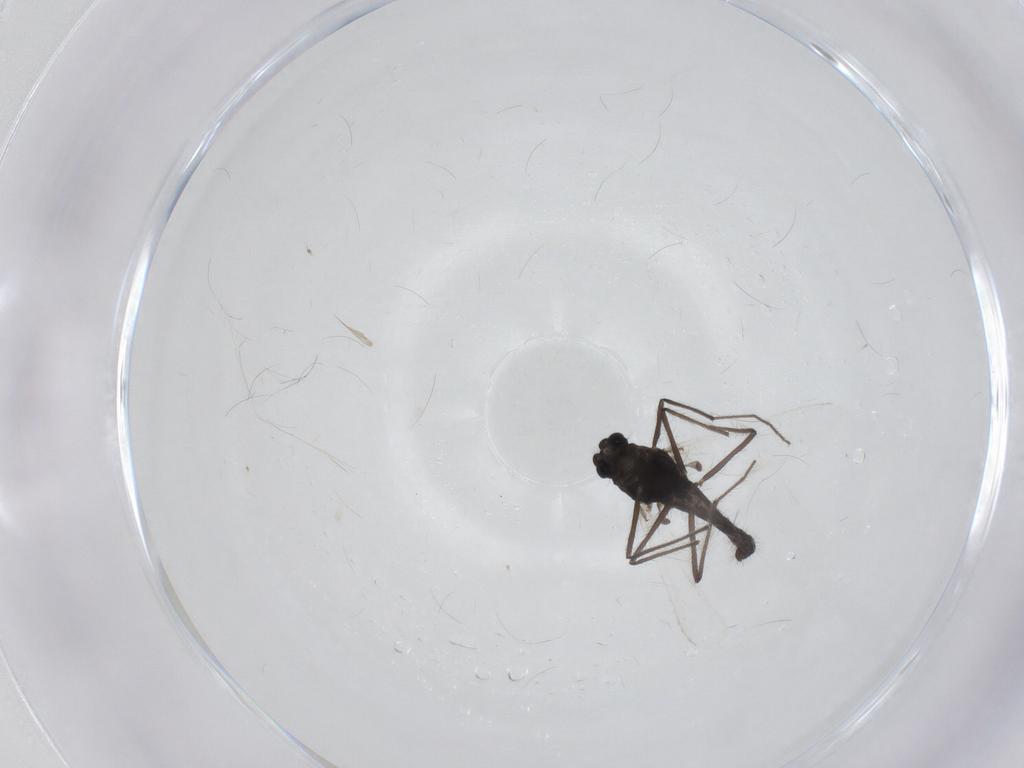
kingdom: Animalia
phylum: Arthropoda
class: Insecta
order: Diptera
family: Chironomidae
